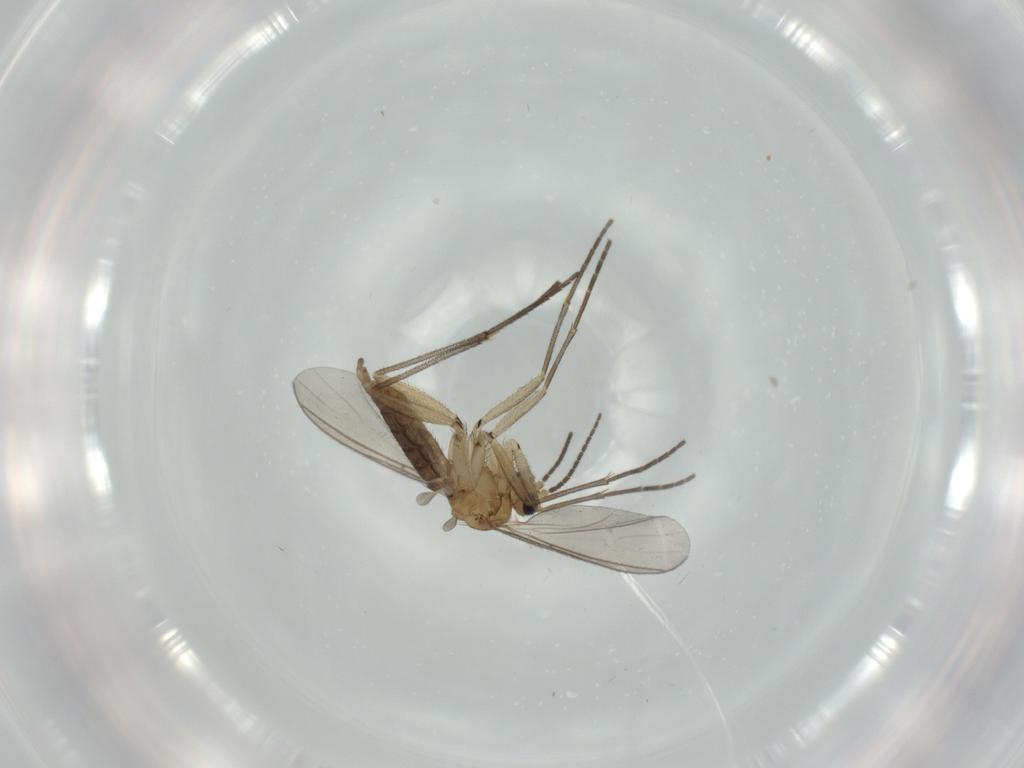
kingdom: Animalia
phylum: Arthropoda
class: Insecta
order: Diptera
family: Sciaridae
